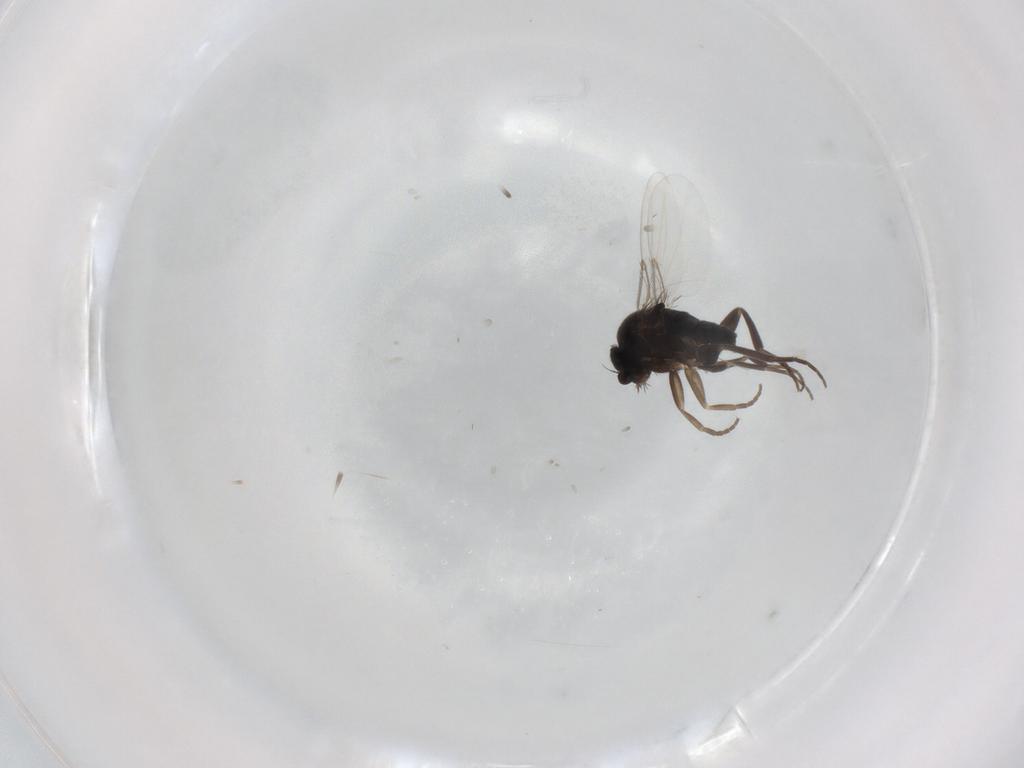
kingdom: Animalia
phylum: Arthropoda
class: Insecta
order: Diptera
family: Phoridae
